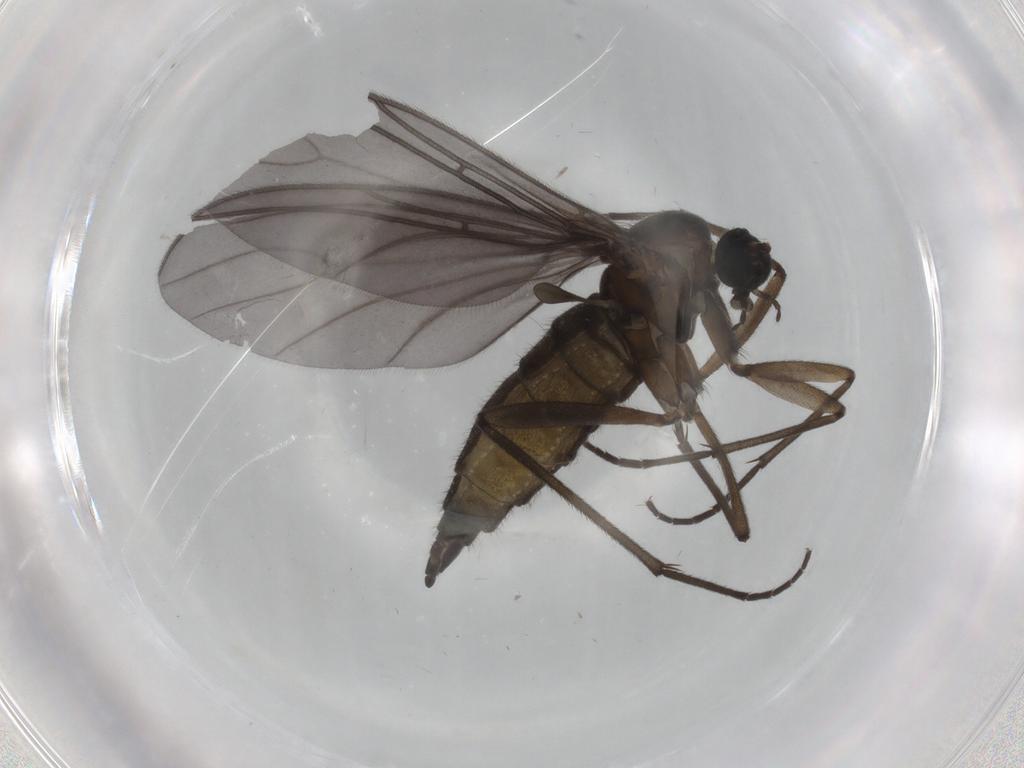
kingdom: Animalia
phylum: Arthropoda
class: Insecta
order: Diptera
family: Sciaridae
